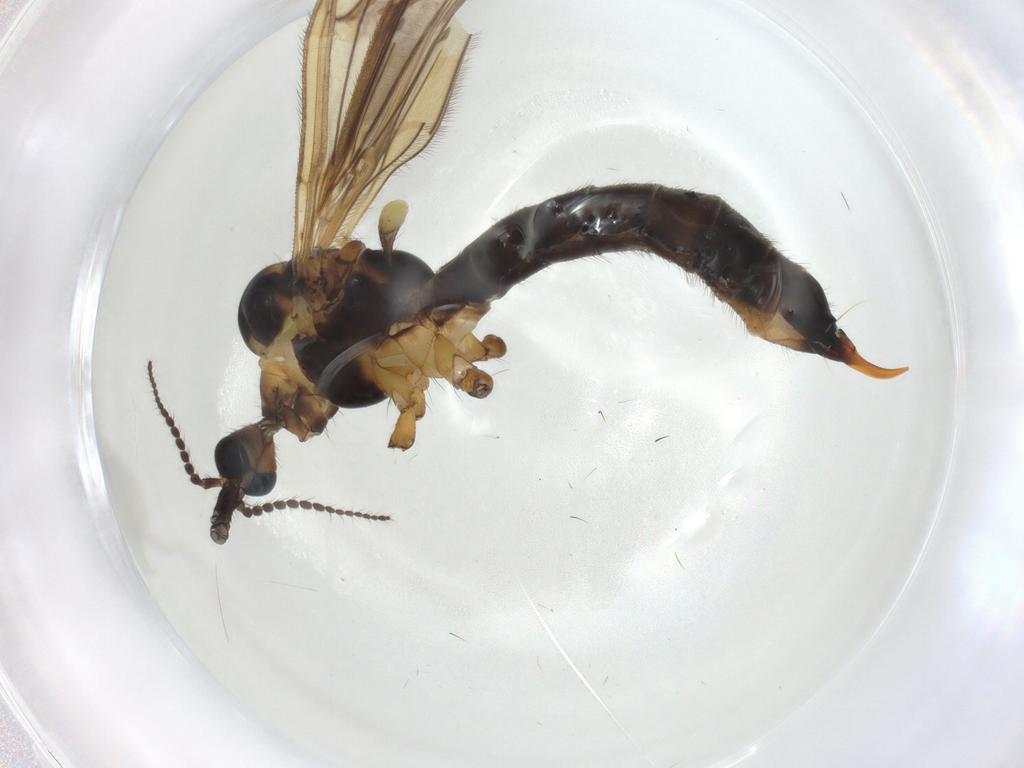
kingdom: Animalia
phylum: Arthropoda
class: Insecta
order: Diptera
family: Limoniidae
